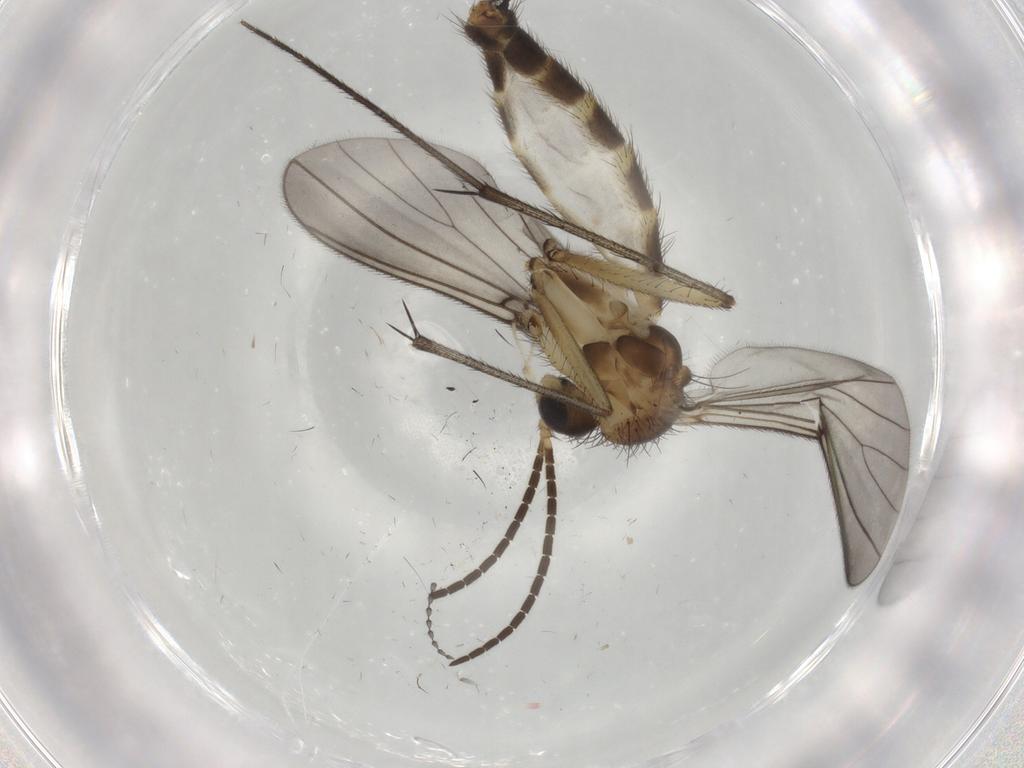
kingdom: Animalia
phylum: Arthropoda
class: Insecta
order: Diptera
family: Sciaridae
